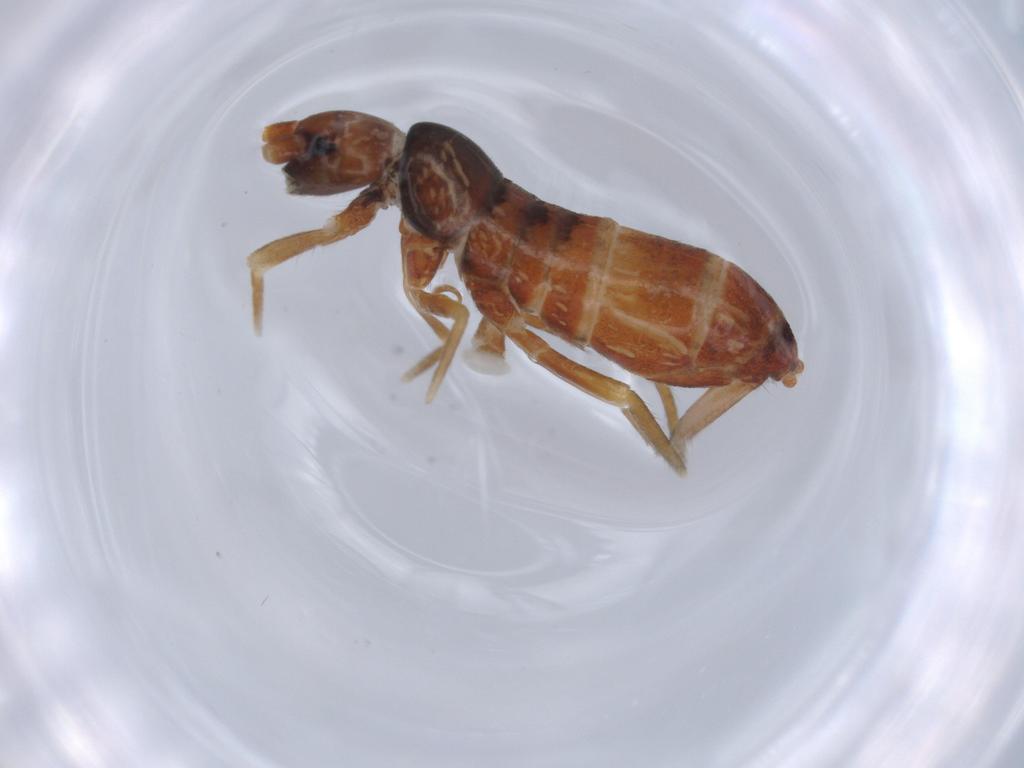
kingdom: Animalia
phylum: Arthropoda
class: Collembola
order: Entomobryomorpha
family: Tomoceridae
